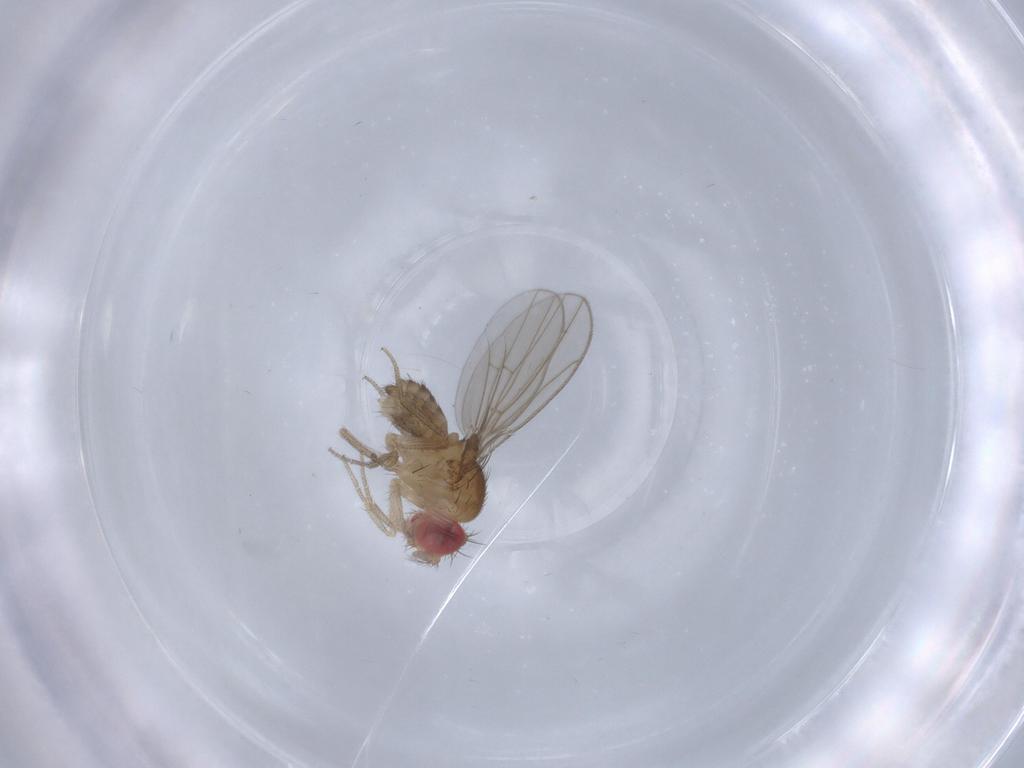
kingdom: Animalia
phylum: Arthropoda
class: Insecta
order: Diptera
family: Drosophilidae
